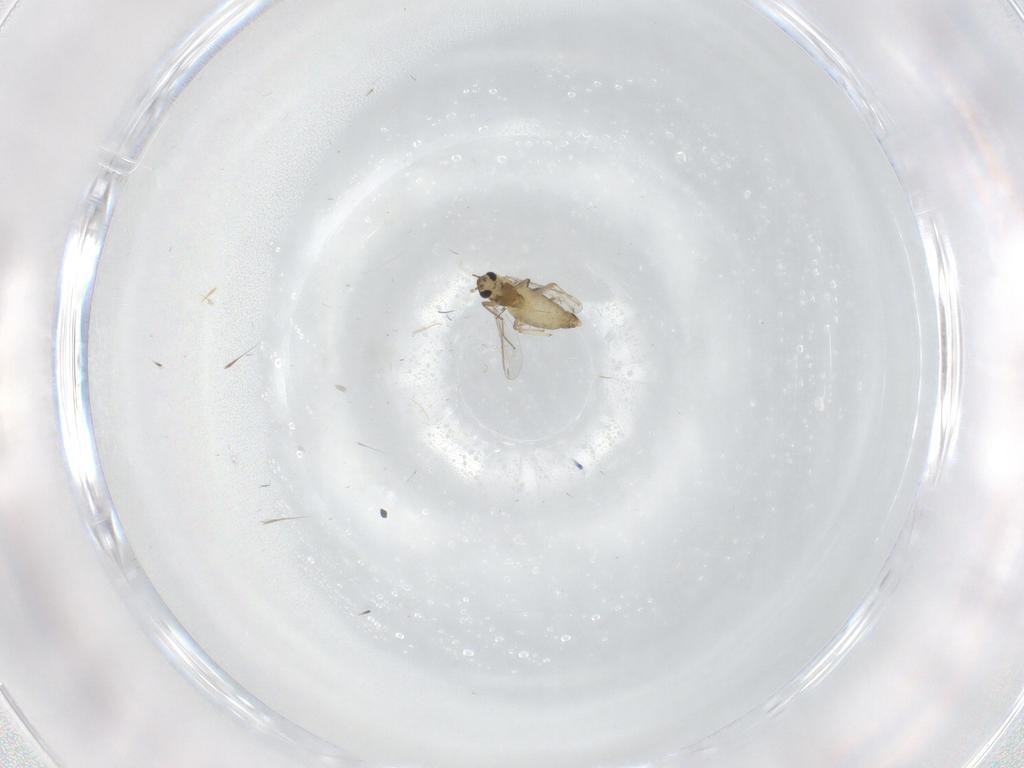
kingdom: Animalia
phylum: Arthropoda
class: Insecta
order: Diptera
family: Chironomidae
